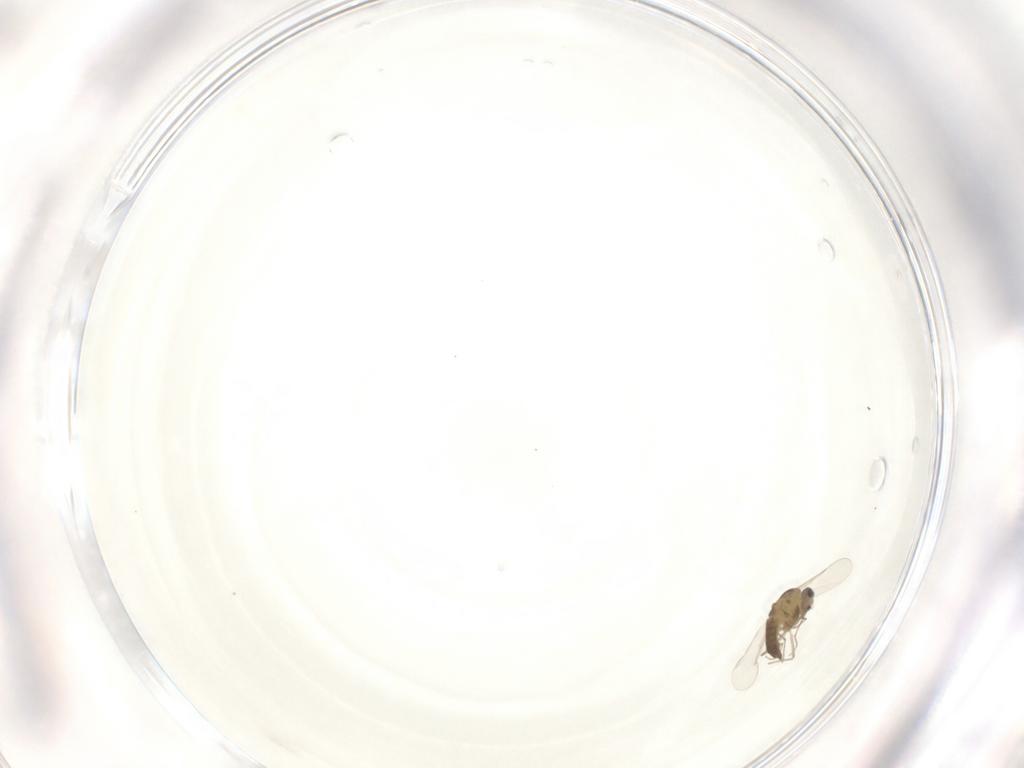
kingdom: Animalia
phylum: Arthropoda
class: Insecta
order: Diptera
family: Chironomidae
